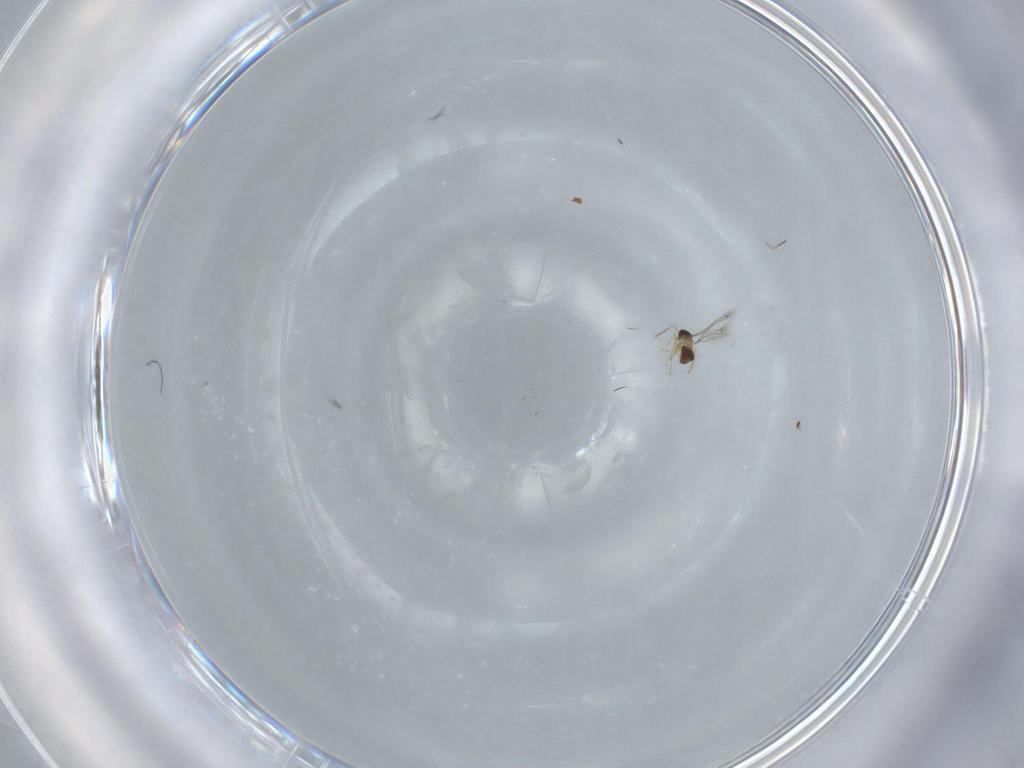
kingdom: Animalia
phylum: Arthropoda
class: Insecta
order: Hymenoptera
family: Mymaridae
